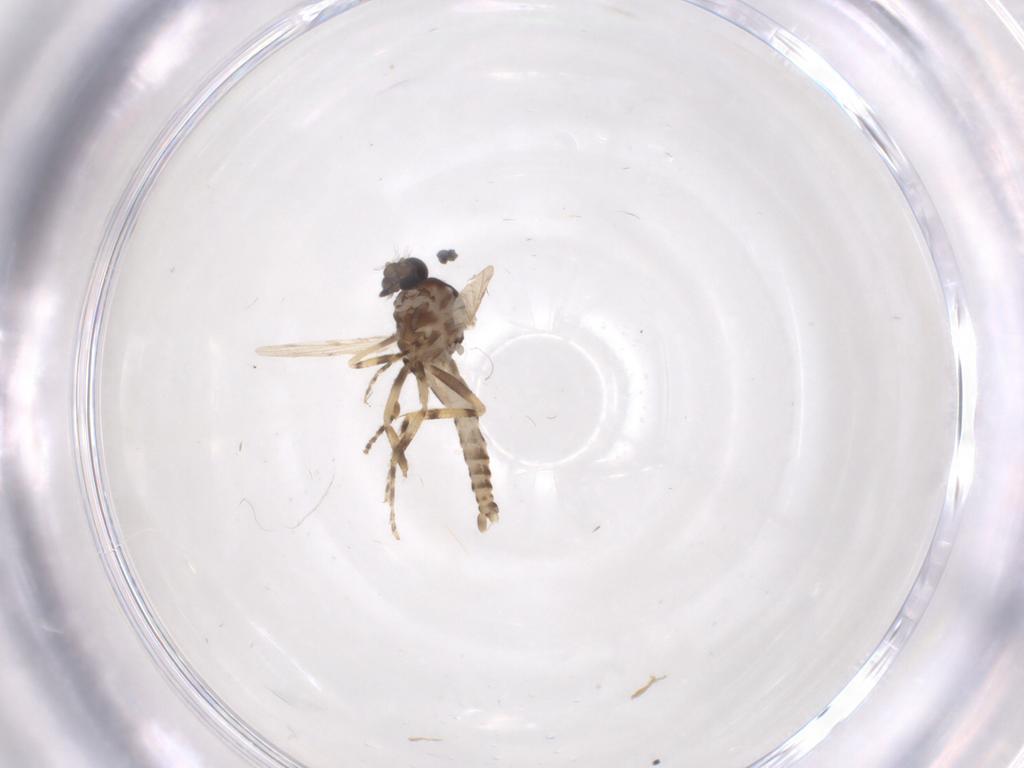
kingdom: Animalia
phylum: Arthropoda
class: Insecta
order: Diptera
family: Ceratopogonidae
